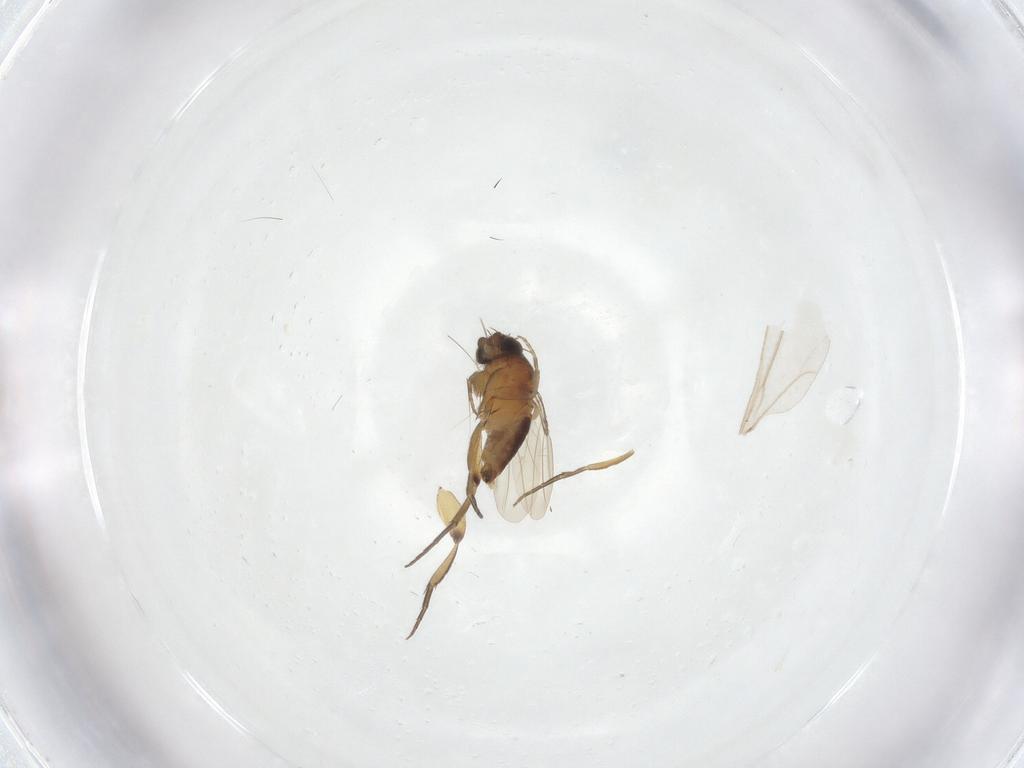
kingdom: Animalia
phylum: Arthropoda
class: Insecta
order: Diptera
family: Phoridae
